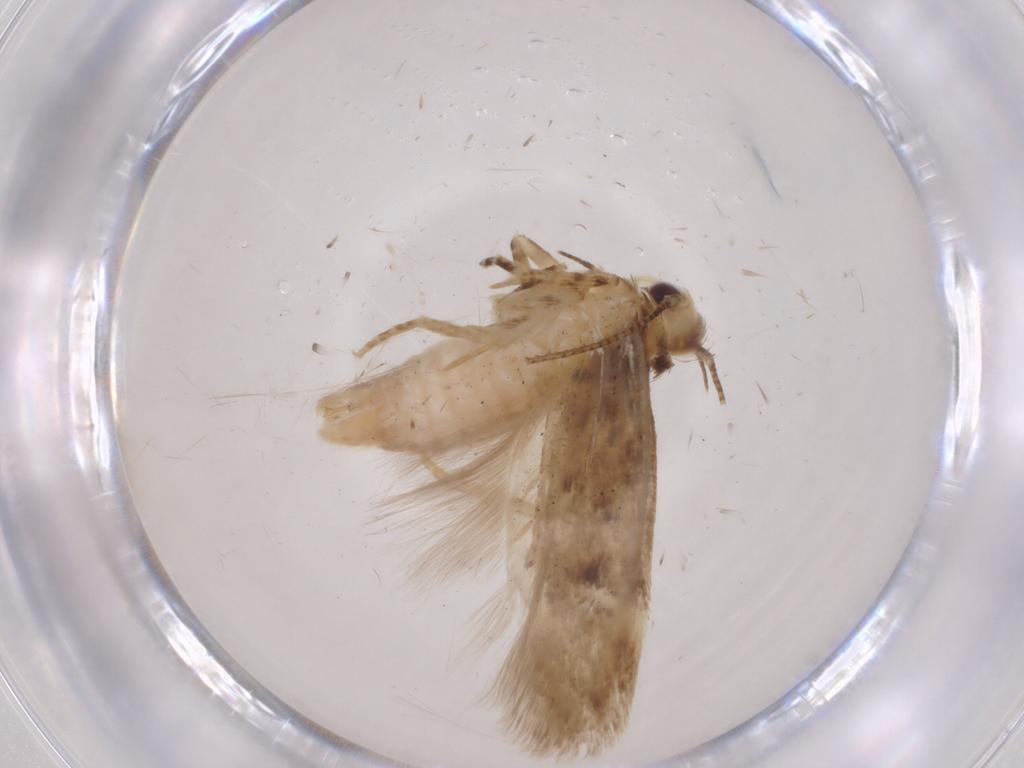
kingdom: Animalia
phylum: Arthropoda
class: Insecta
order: Lepidoptera
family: Gelechiidae
